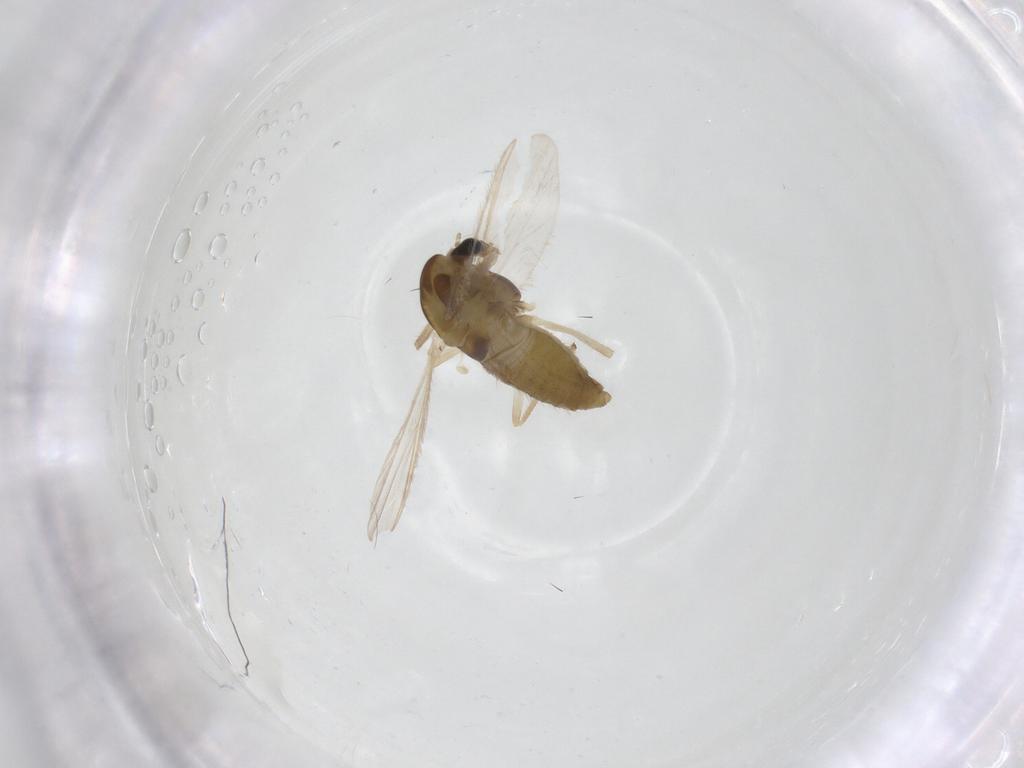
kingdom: Animalia
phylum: Arthropoda
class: Insecta
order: Diptera
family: Chironomidae
